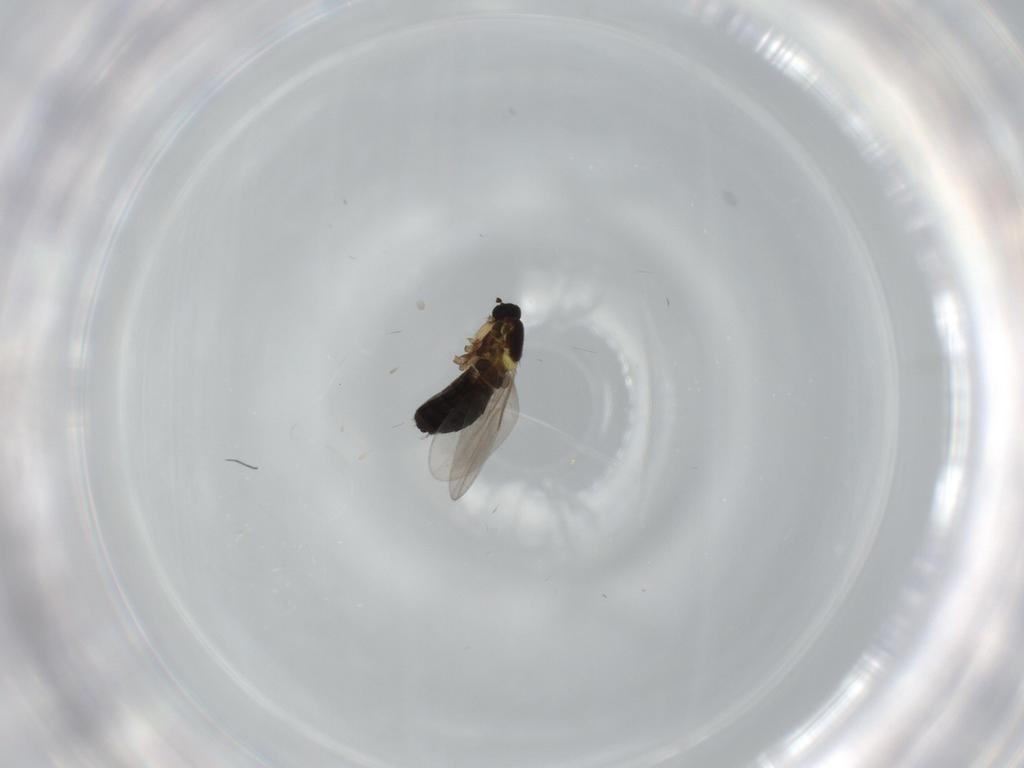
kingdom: Animalia
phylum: Arthropoda
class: Insecta
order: Diptera
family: Scatopsidae
